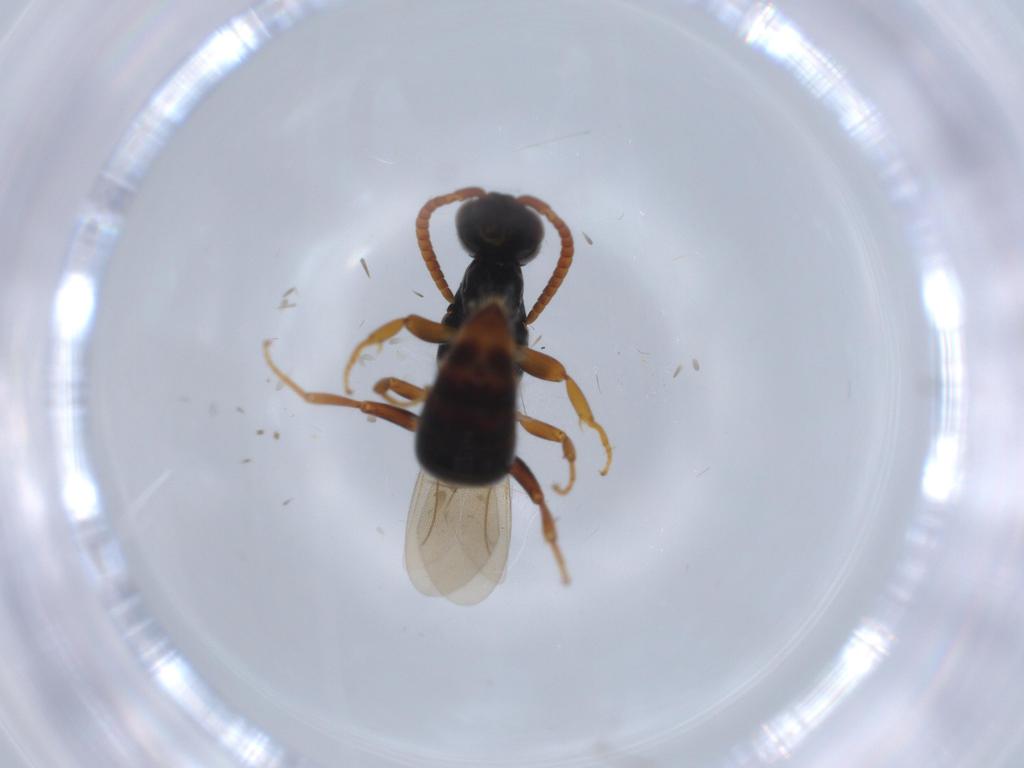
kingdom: Animalia
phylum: Arthropoda
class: Insecta
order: Hymenoptera
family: Bethylidae
